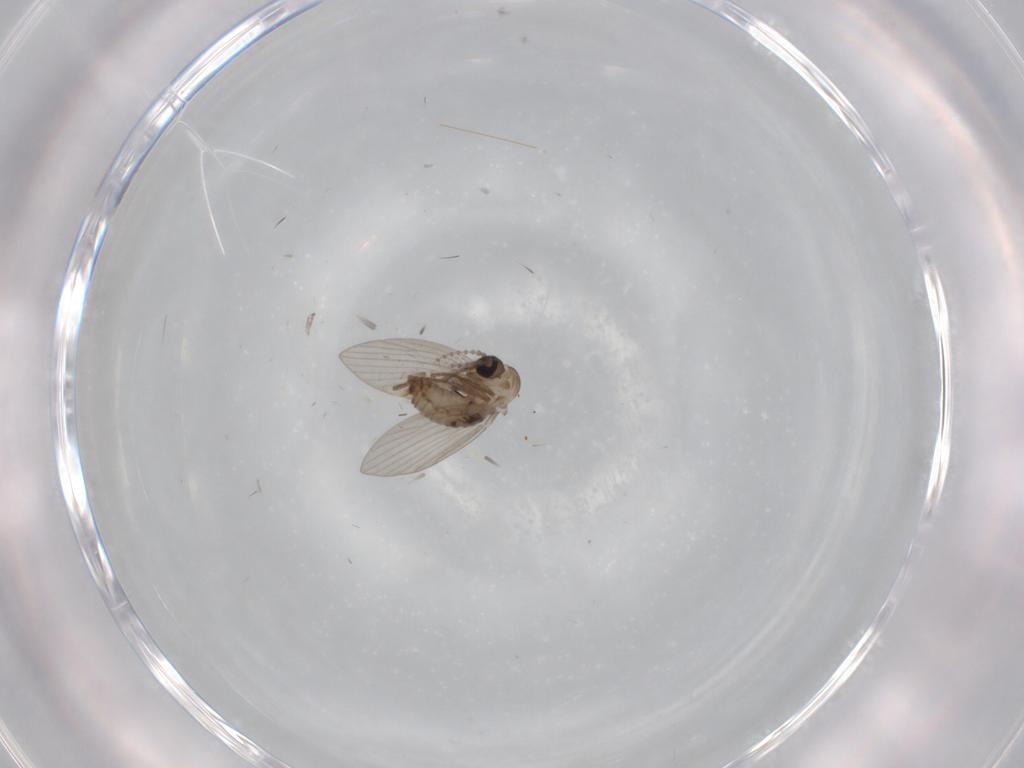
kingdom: Animalia
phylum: Arthropoda
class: Insecta
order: Diptera
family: Psychodidae
